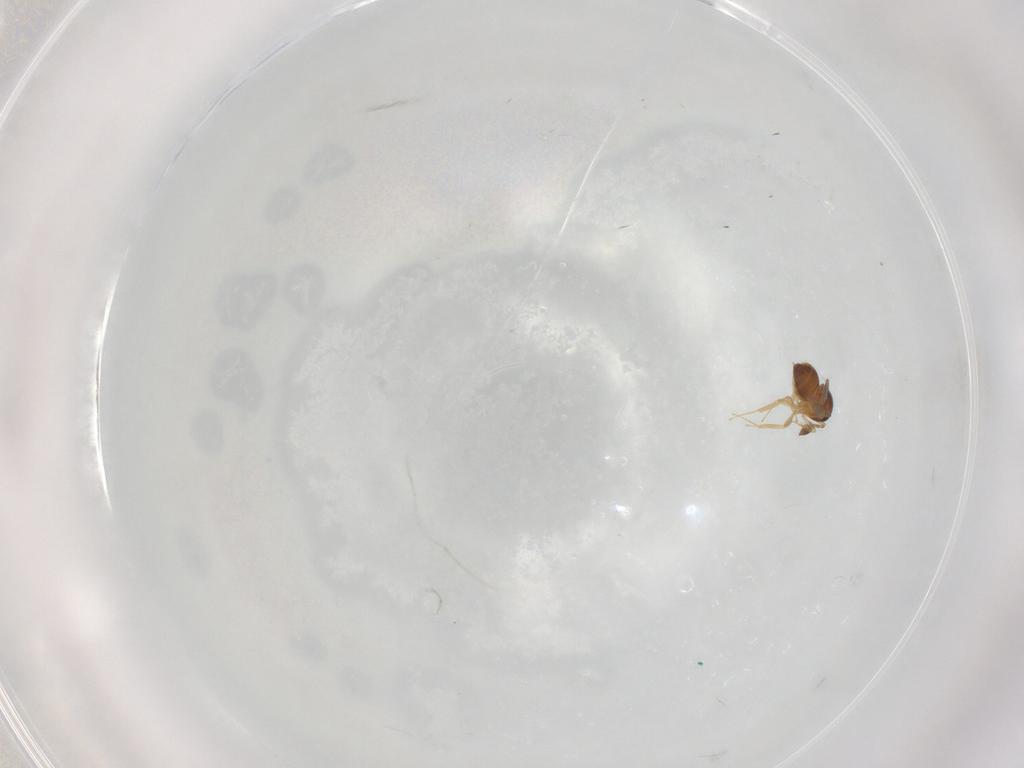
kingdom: Animalia
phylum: Arthropoda
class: Insecta
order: Hymenoptera
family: Scelionidae
